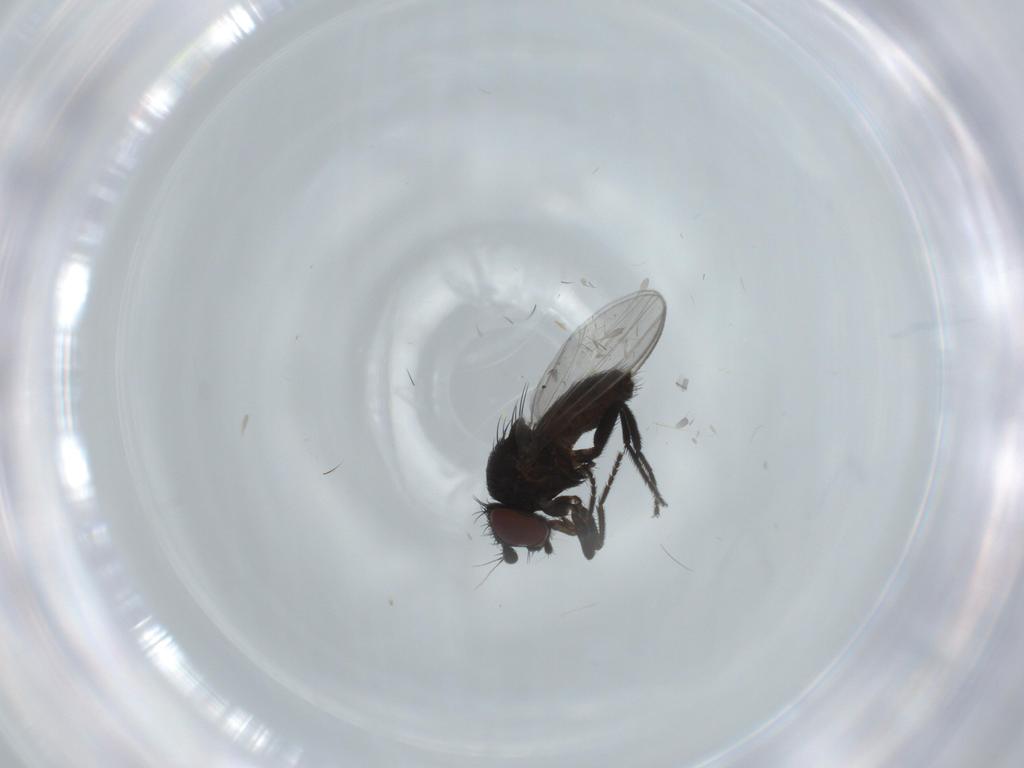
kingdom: Animalia
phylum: Arthropoda
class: Insecta
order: Diptera
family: Milichiidae
